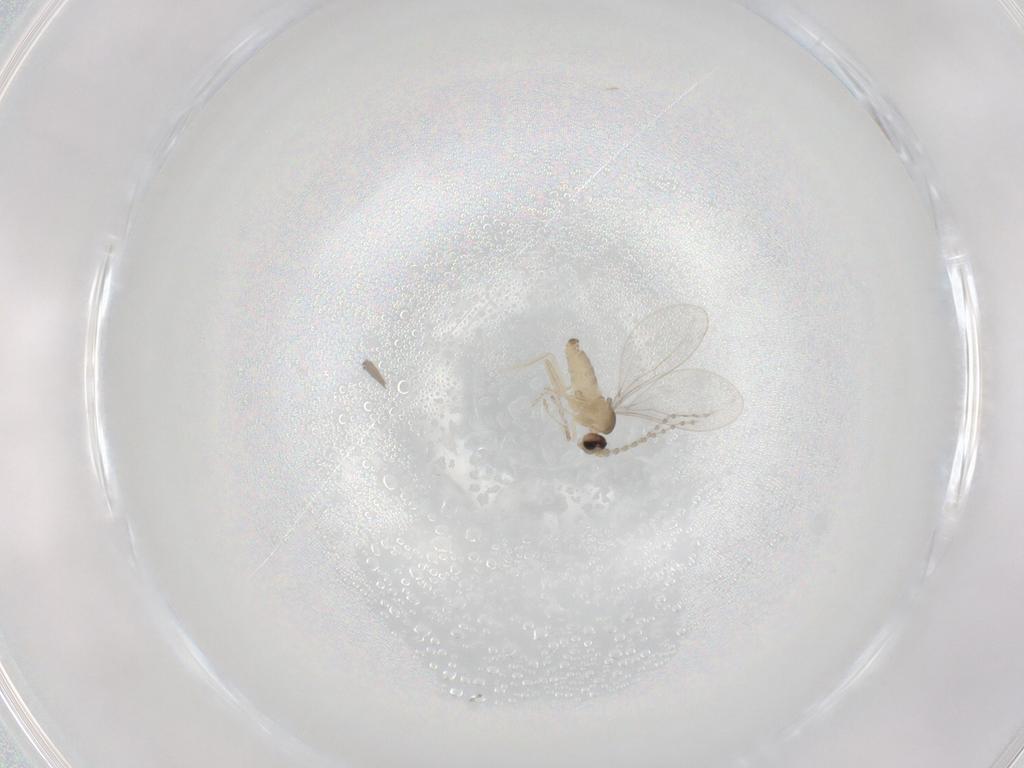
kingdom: Animalia
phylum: Arthropoda
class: Insecta
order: Diptera
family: Cecidomyiidae
